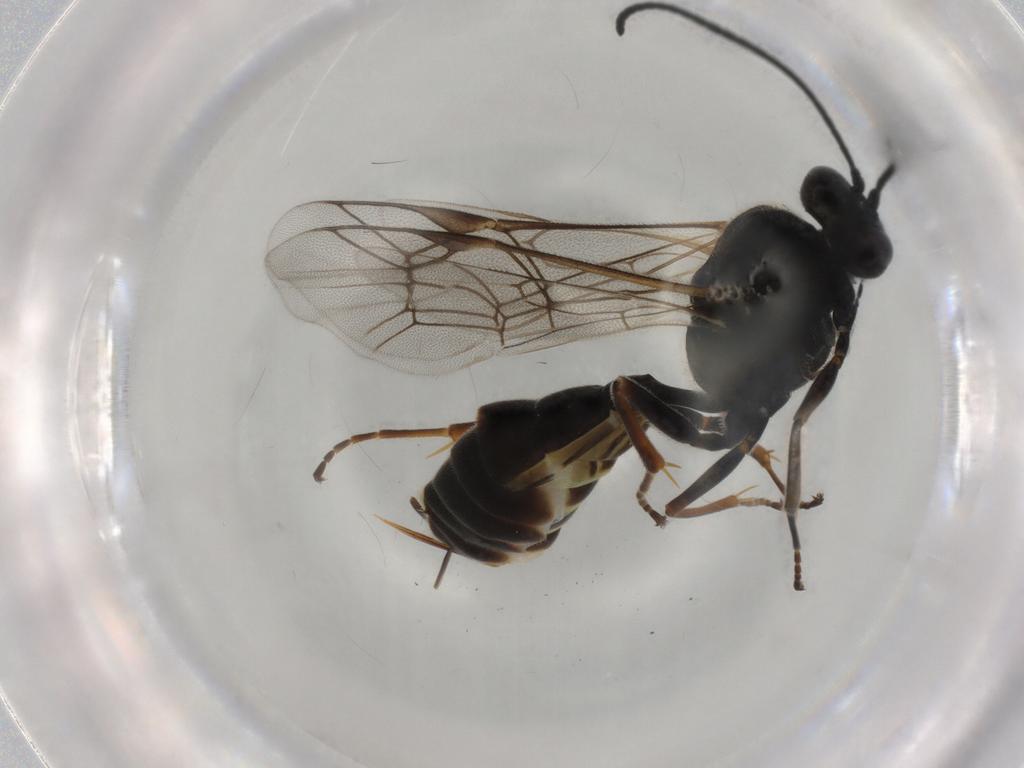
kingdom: Animalia
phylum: Arthropoda
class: Insecta
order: Hymenoptera
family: Ichneumonidae
